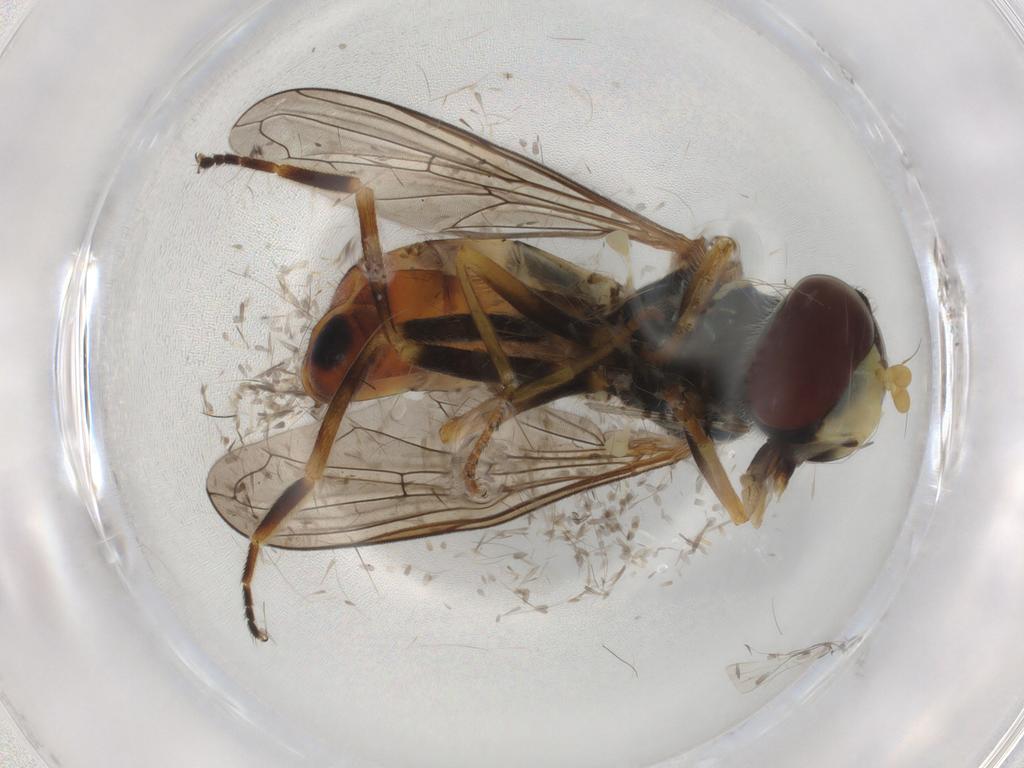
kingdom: Animalia
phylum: Arthropoda
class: Insecta
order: Diptera
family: Syrphidae
